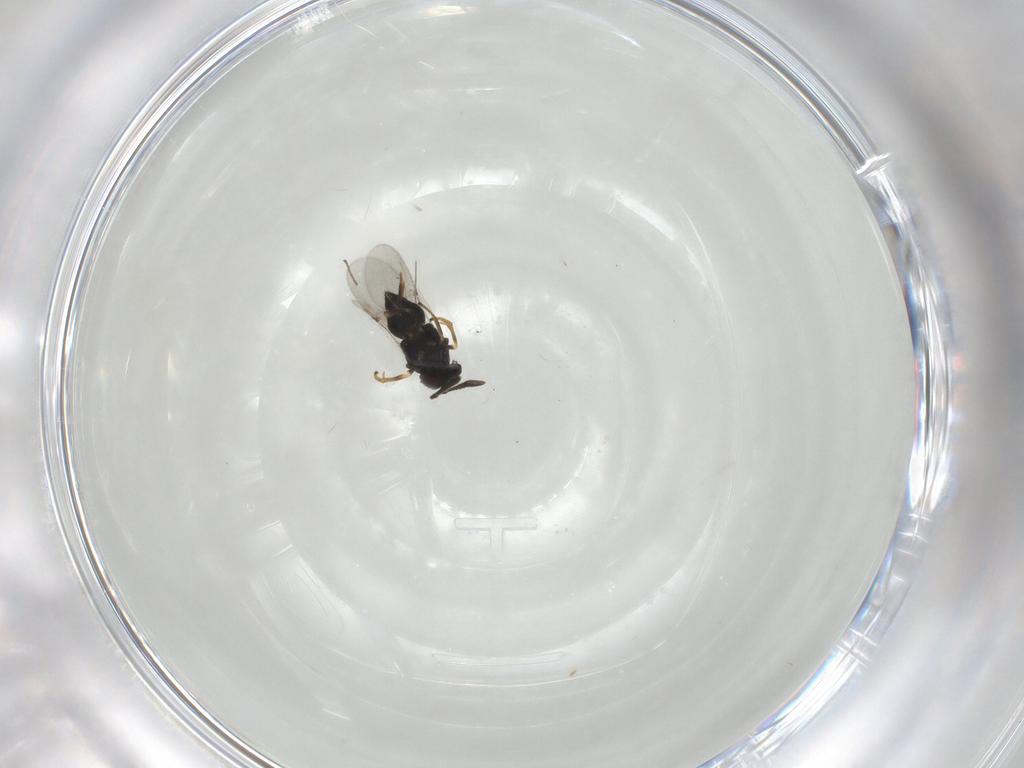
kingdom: Animalia
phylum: Arthropoda
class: Insecta
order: Hymenoptera
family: Encyrtidae
